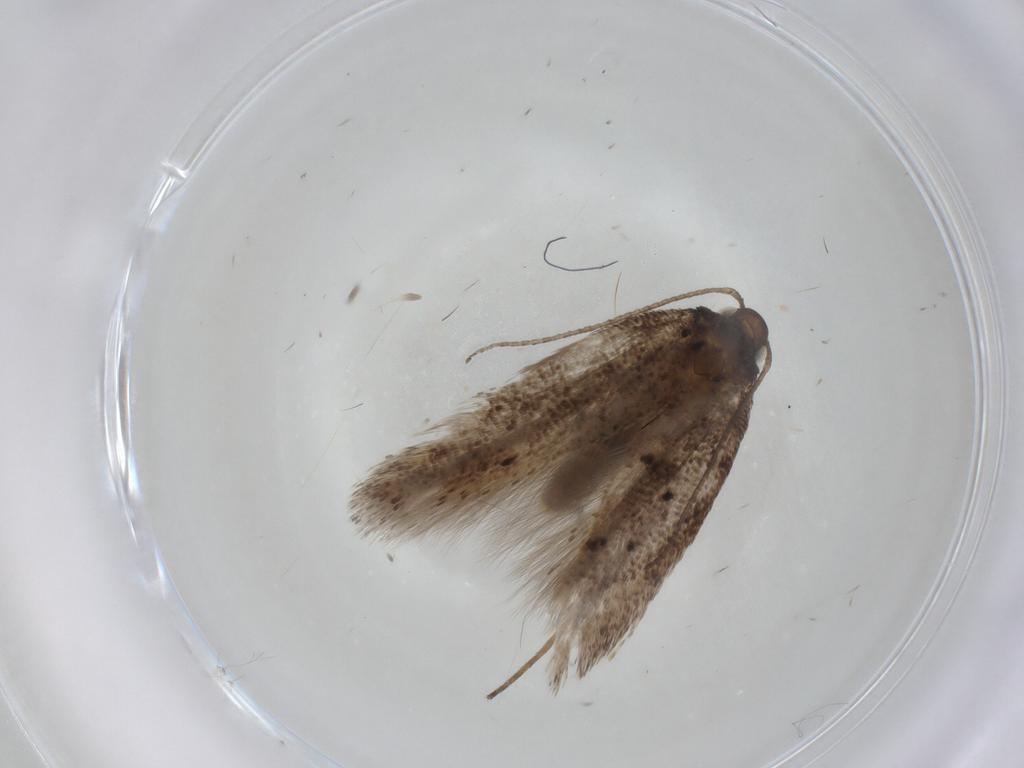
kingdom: Animalia
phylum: Arthropoda
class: Insecta
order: Lepidoptera
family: Gelechiidae
